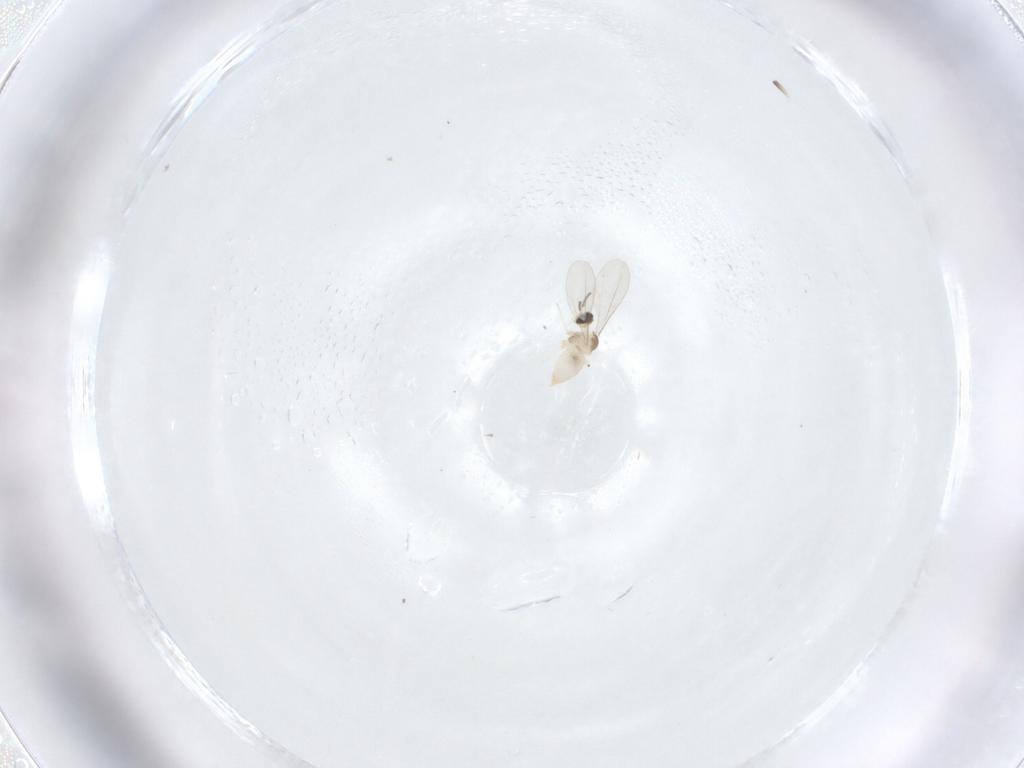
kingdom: Animalia
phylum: Arthropoda
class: Insecta
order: Diptera
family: Cecidomyiidae
